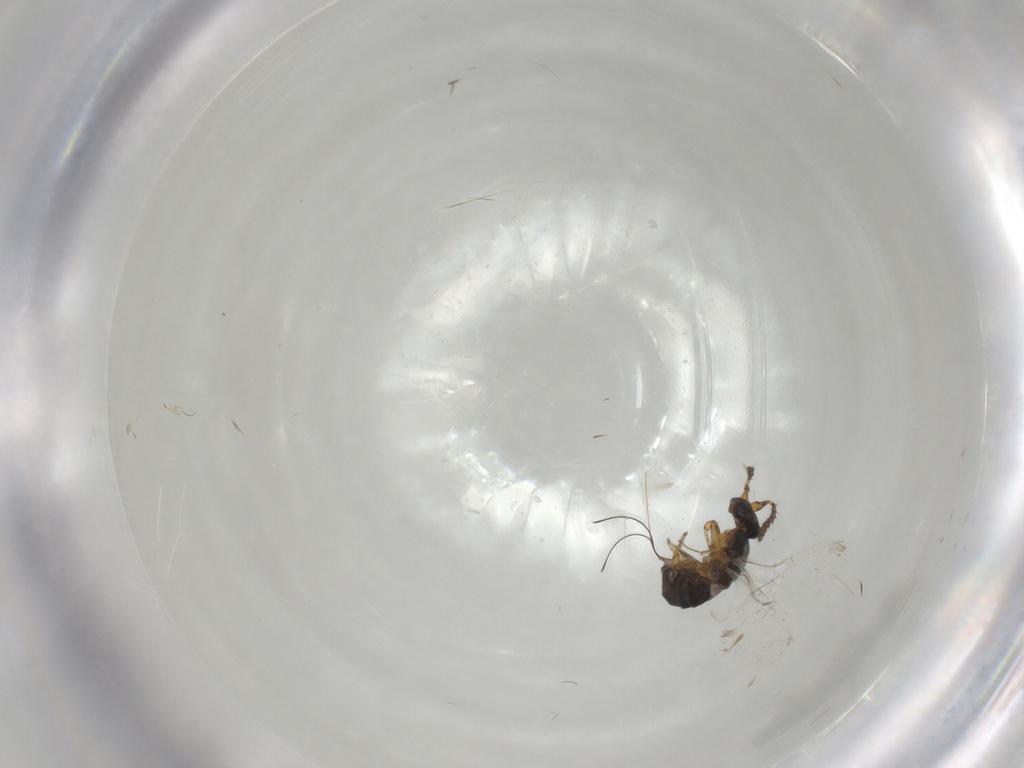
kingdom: Animalia
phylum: Arthropoda
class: Insecta
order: Hymenoptera
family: Agaonidae
